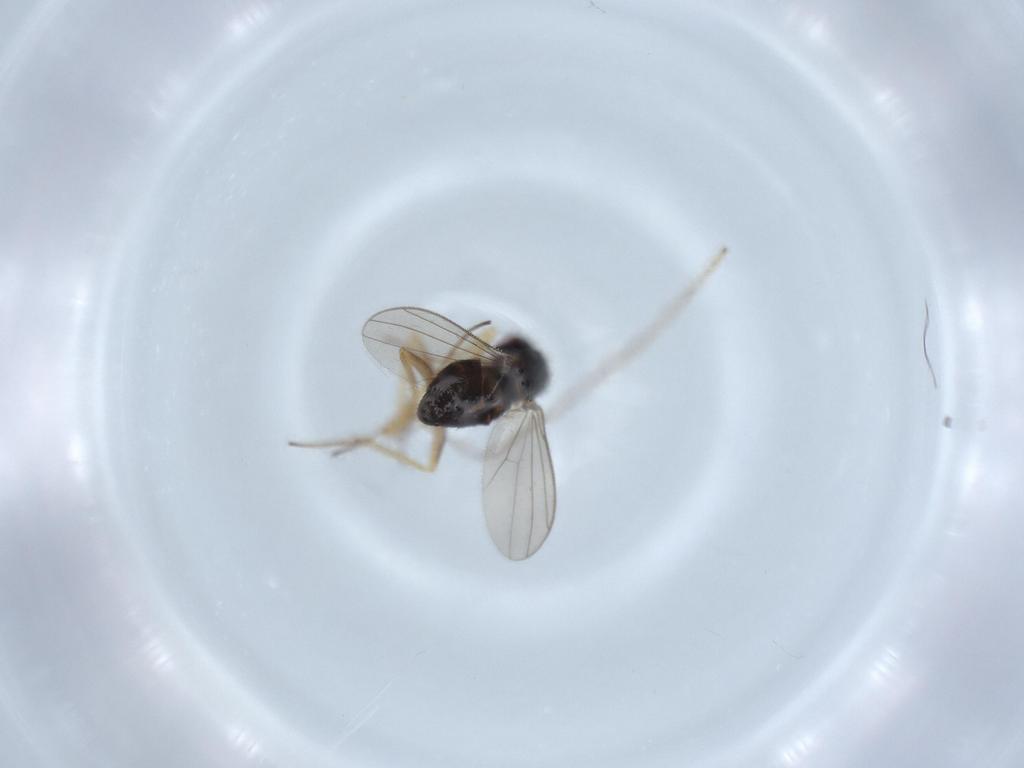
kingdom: Animalia
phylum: Arthropoda
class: Insecta
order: Diptera
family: Dolichopodidae
